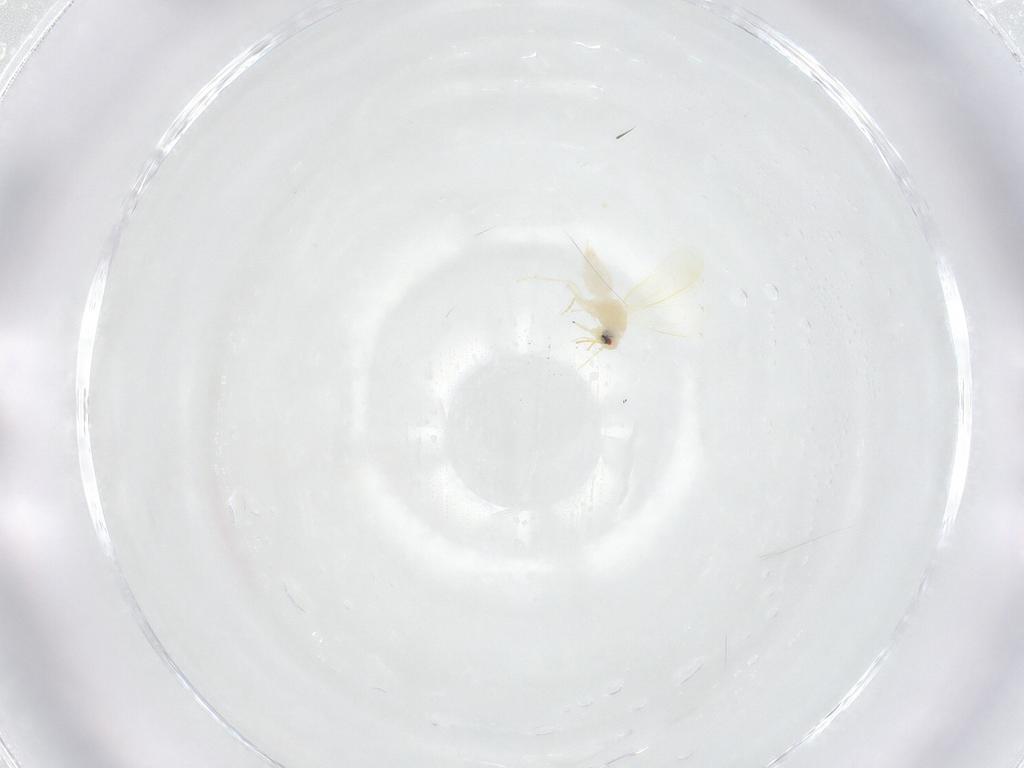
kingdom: Animalia
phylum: Arthropoda
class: Insecta
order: Hemiptera
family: Aleyrodidae
